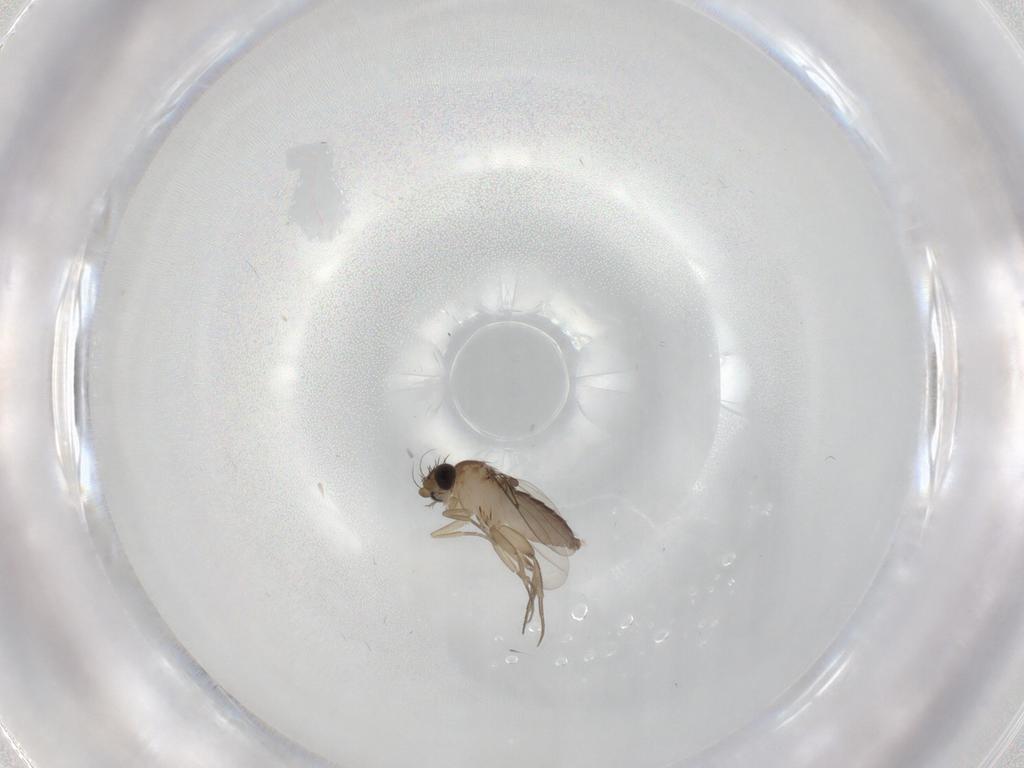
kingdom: Animalia
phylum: Arthropoda
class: Insecta
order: Diptera
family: Phoridae
